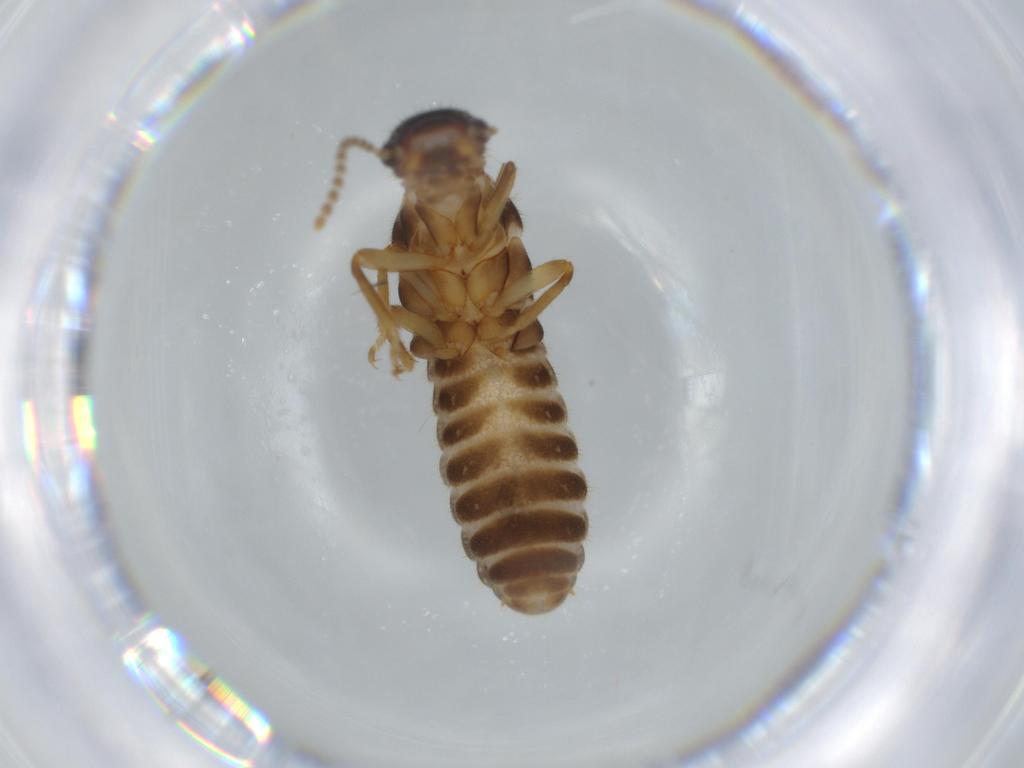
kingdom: Animalia
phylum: Arthropoda
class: Insecta
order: Blattodea
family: Termitidae
